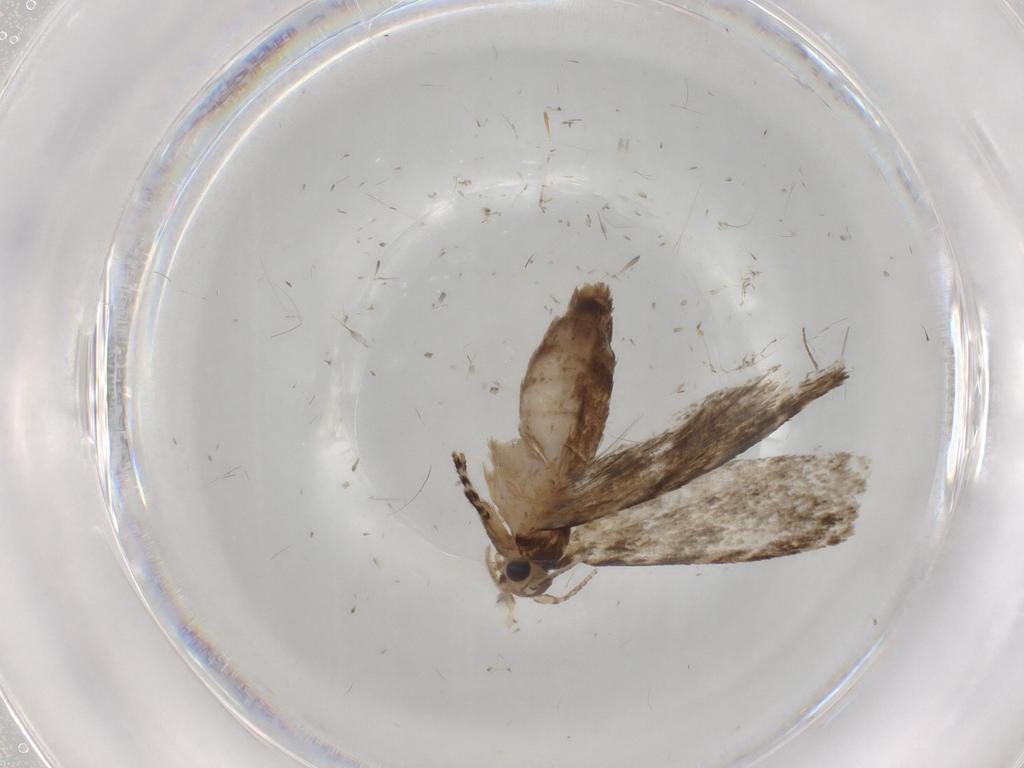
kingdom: Animalia
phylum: Arthropoda
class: Insecta
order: Lepidoptera
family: Tineidae
